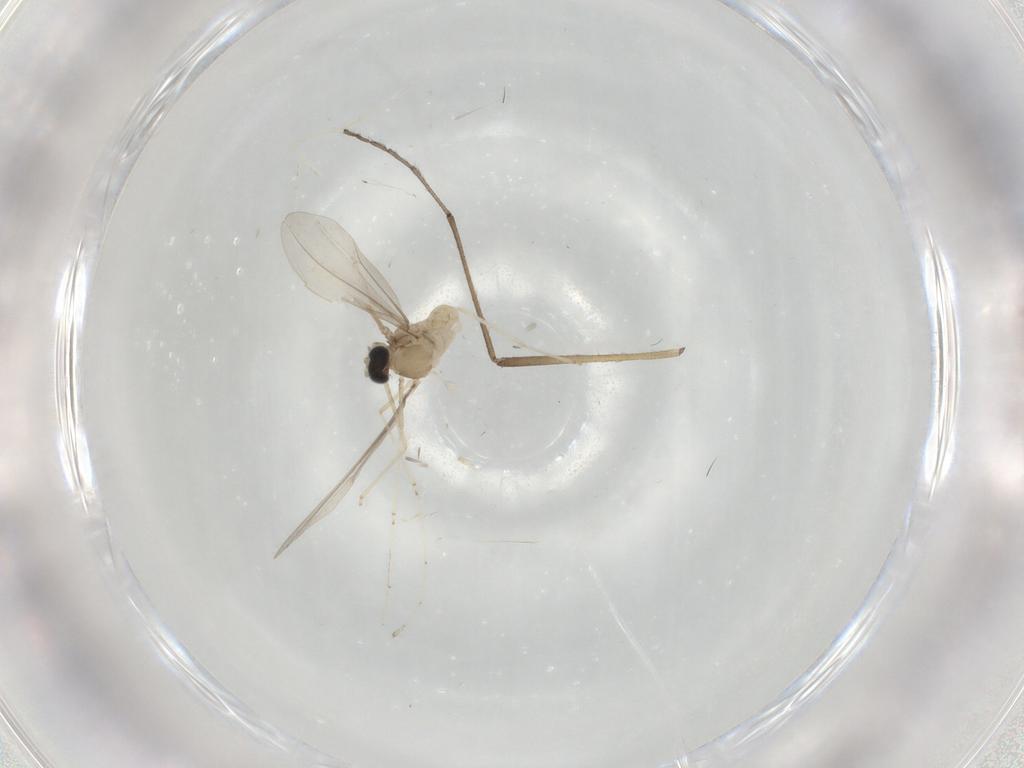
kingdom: Animalia
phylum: Arthropoda
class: Insecta
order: Diptera
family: Cecidomyiidae
